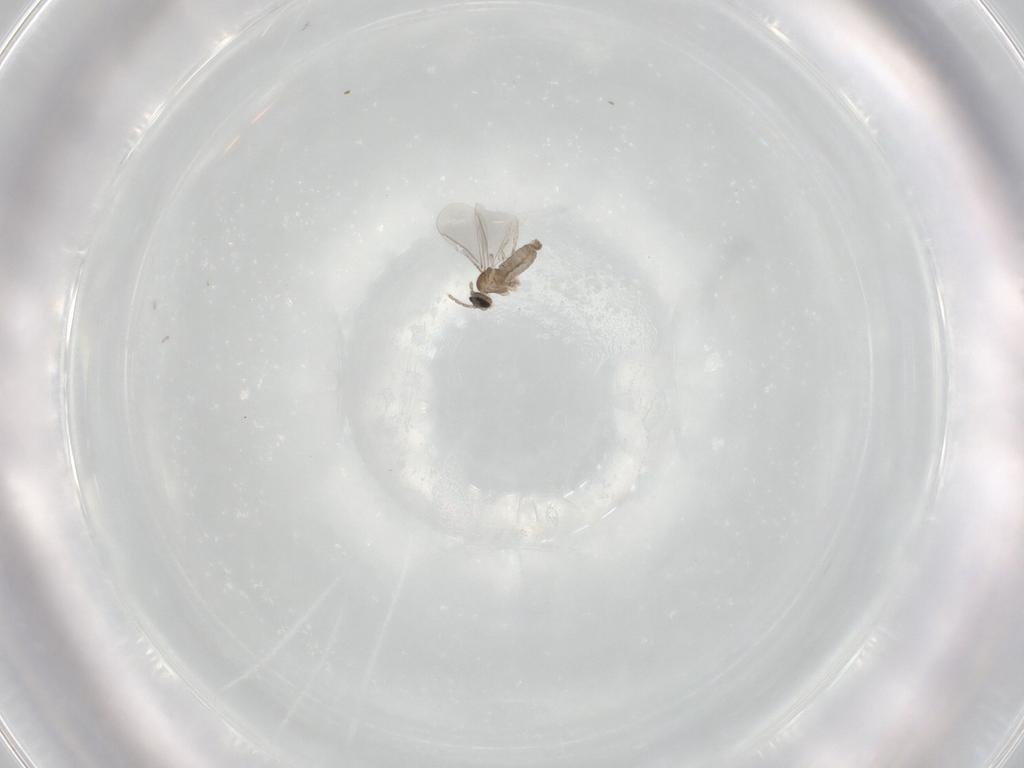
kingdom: Animalia
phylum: Arthropoda
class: Insecta
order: Diptera
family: Cecidomyiidae
